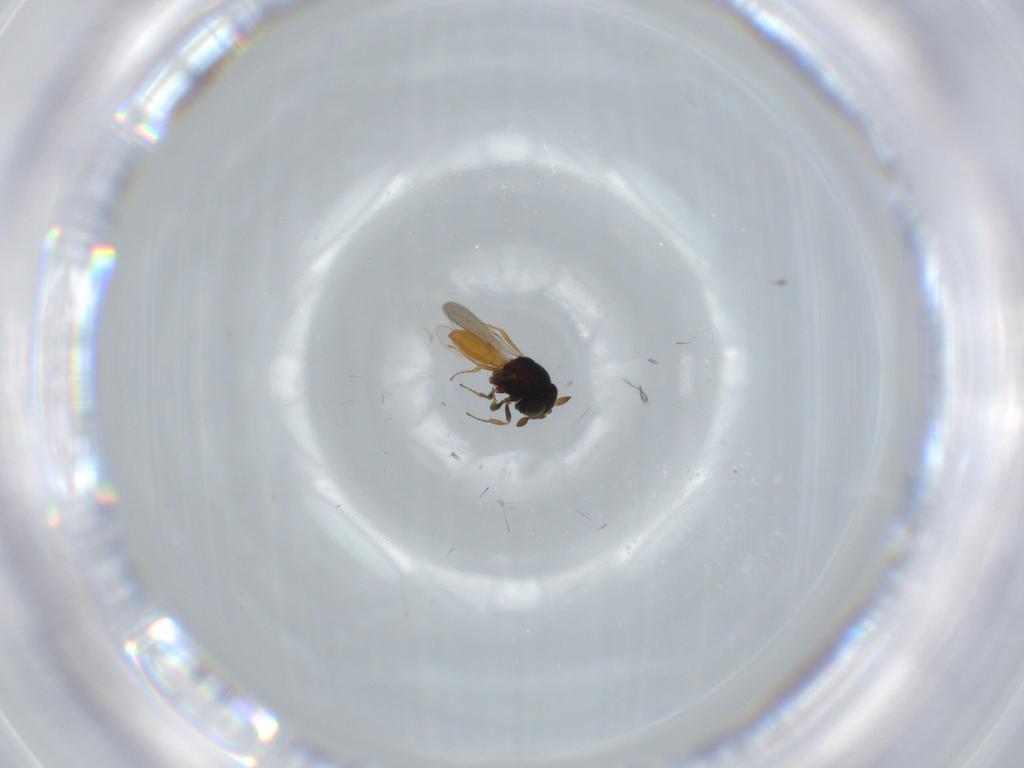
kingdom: Animalia
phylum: Arthropoda
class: Insecta
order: Hymenoptera
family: Scelionidae
